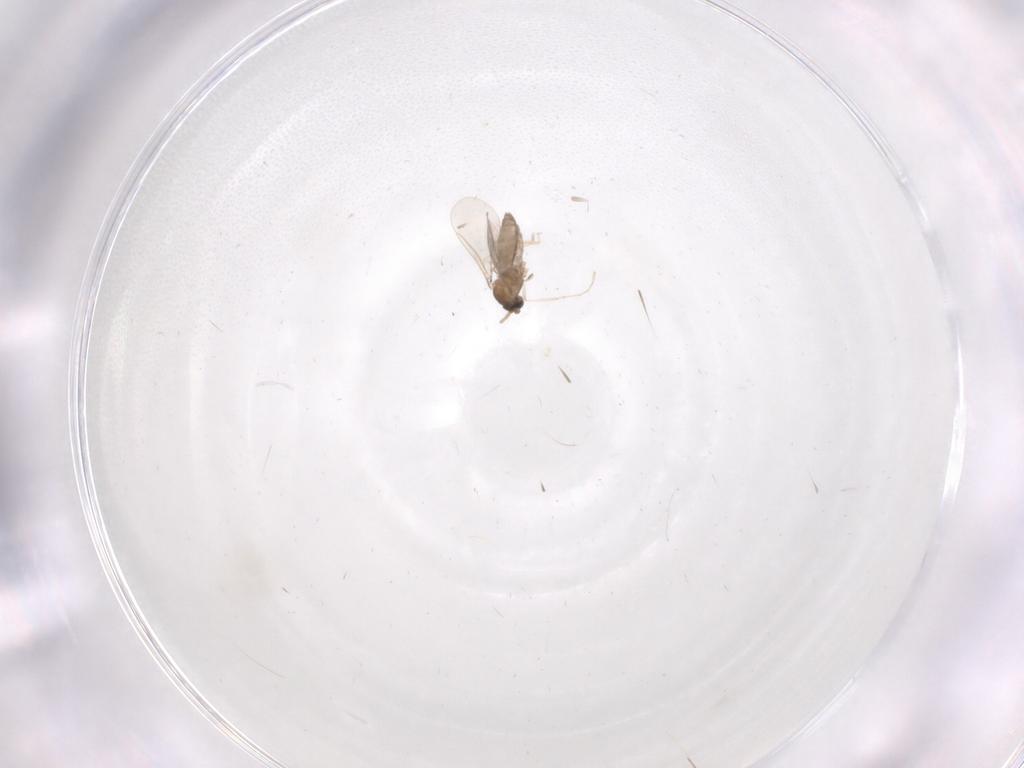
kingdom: Animalia
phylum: Arthropoda
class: Insecta
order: Diptera
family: Cecidomyiidae
